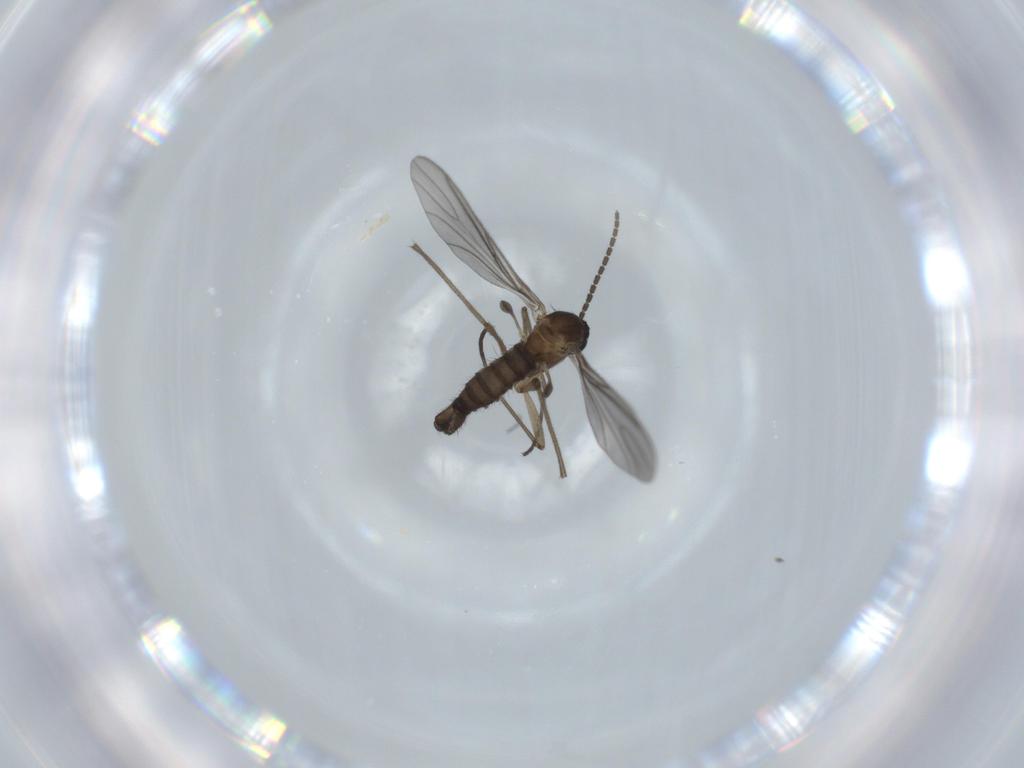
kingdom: Animalia
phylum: Arthropoda
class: Insecta
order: Diptera
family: Sciaridae
